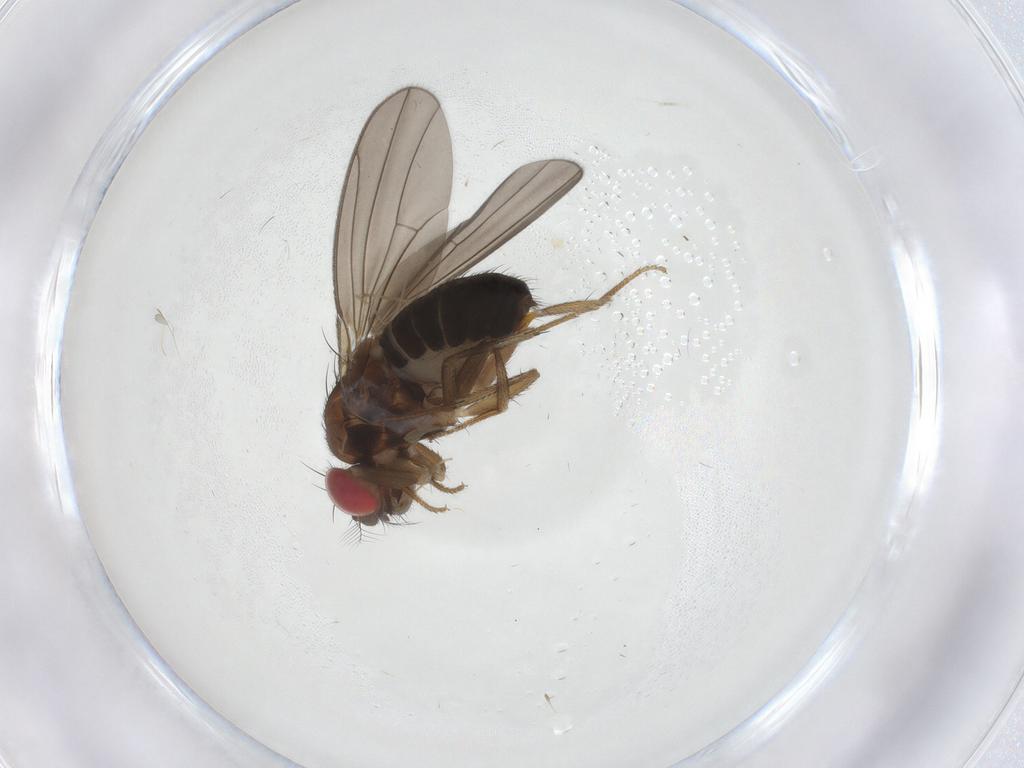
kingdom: Animalia
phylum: Arthropoda
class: Insecta
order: Diptera
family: Drosophilidae
